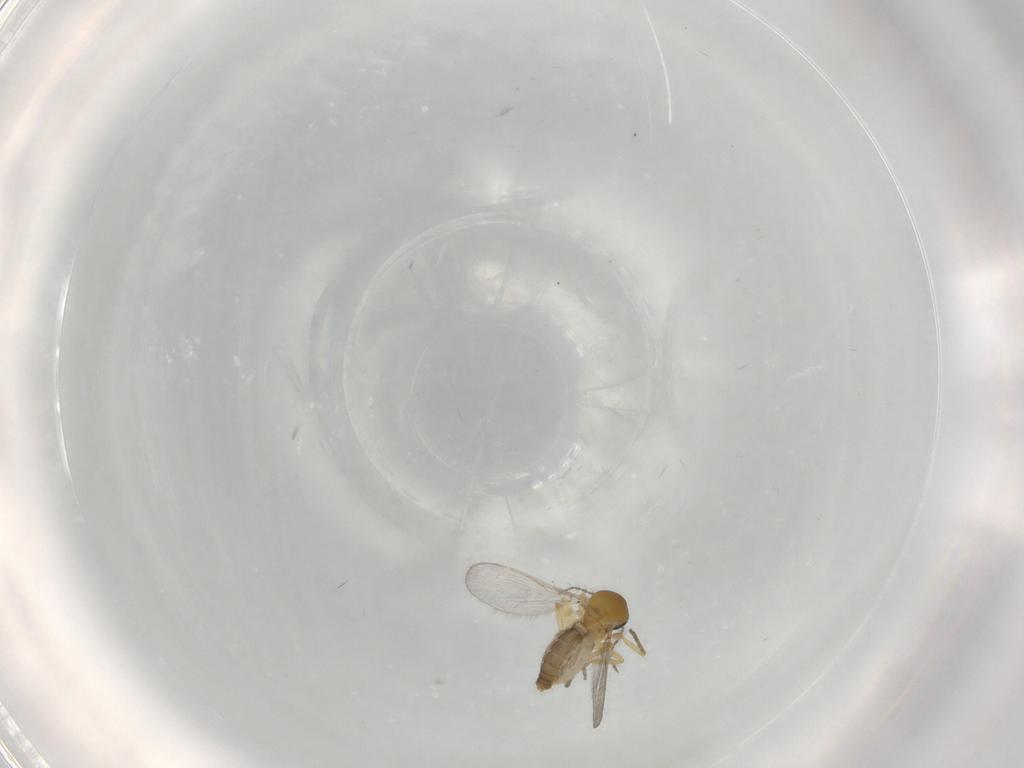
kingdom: Animalia
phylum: Arthropoda
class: Insecta
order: Diptera
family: Ceratopogonidae
